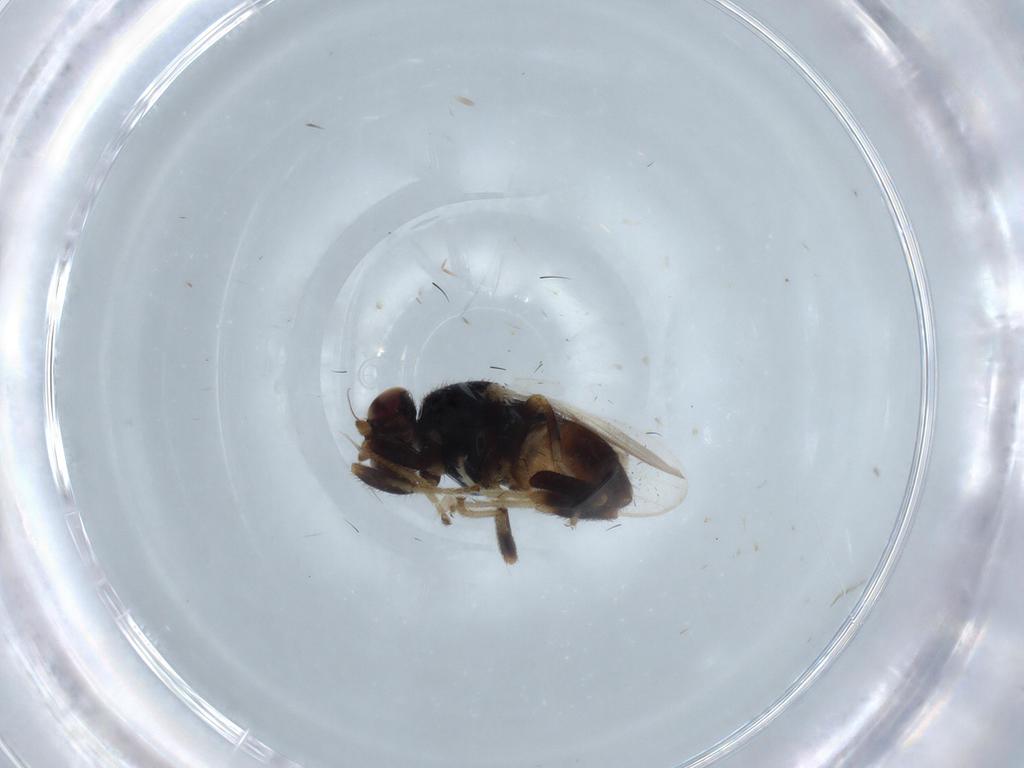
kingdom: Animalia
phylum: Arthropoda
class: Insecta
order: Diptera
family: Chloropidae
